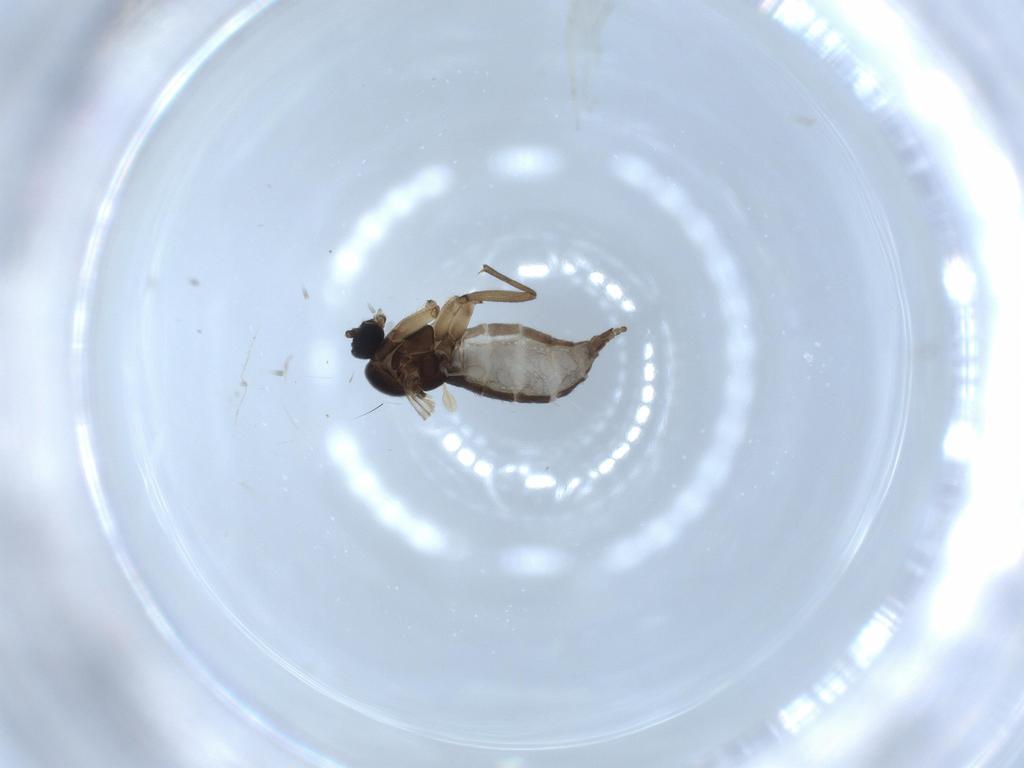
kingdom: Animalia
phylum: Arthropoda
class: Insecta
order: Diptera
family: Sciaridae
